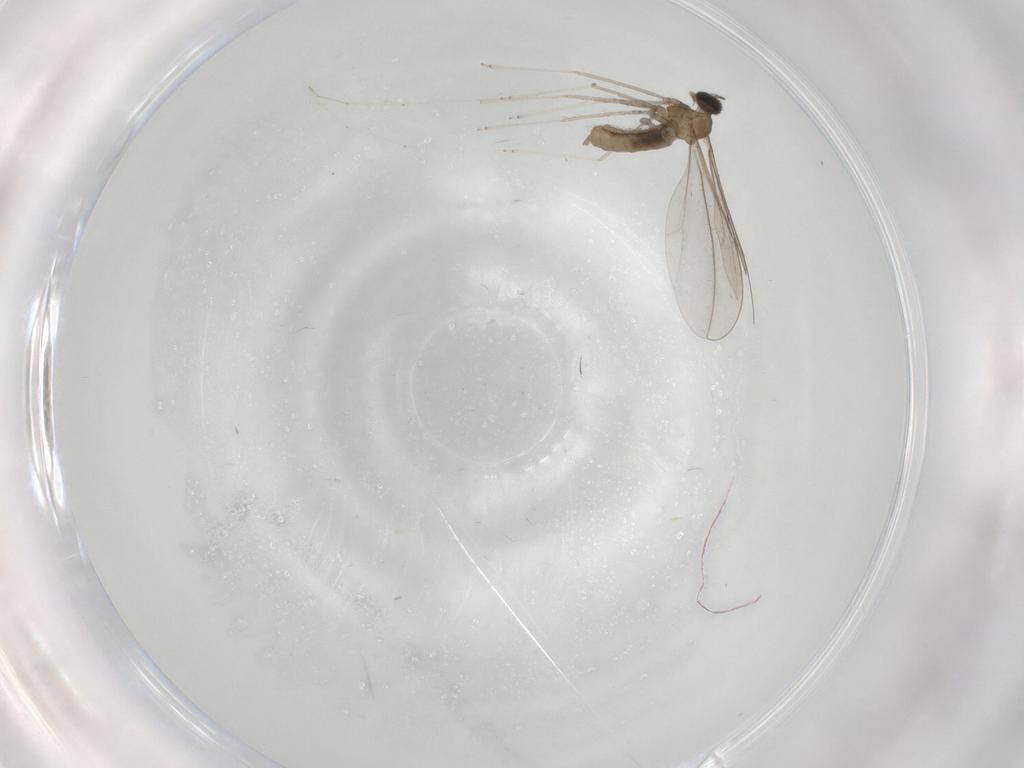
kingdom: Animalia
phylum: Arthropoda
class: Insecta
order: Diptera
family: Cecidomyiidae
